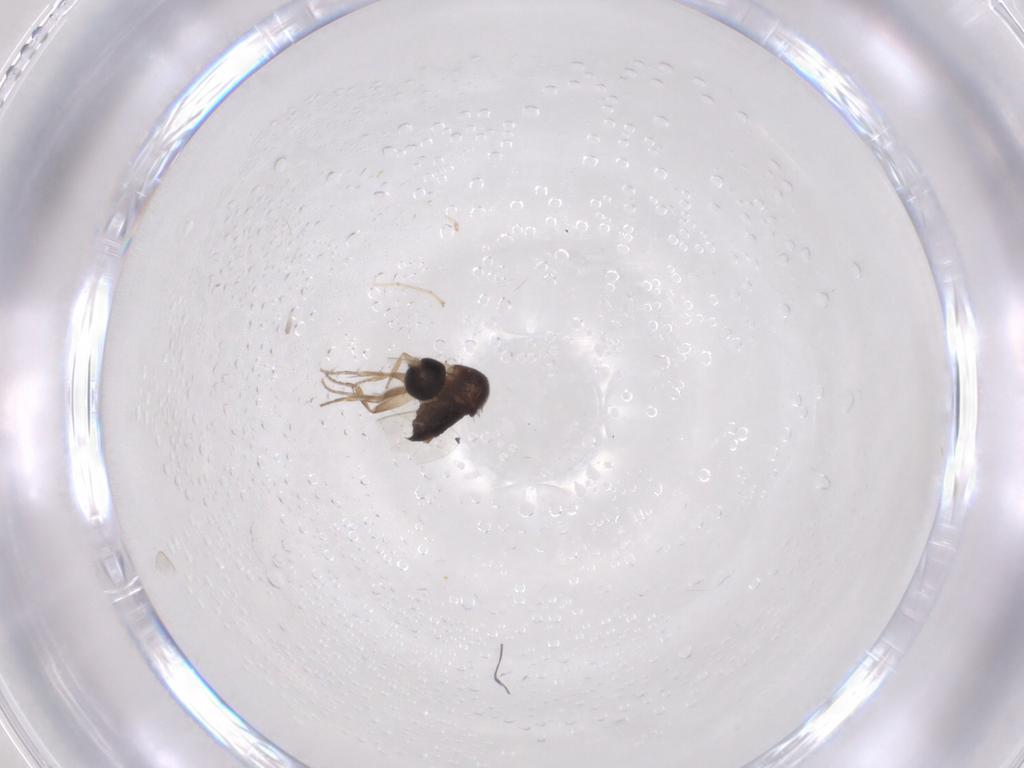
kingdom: Animalia
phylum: Arthropoda
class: Insecta
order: Diptera
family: Phoridae
